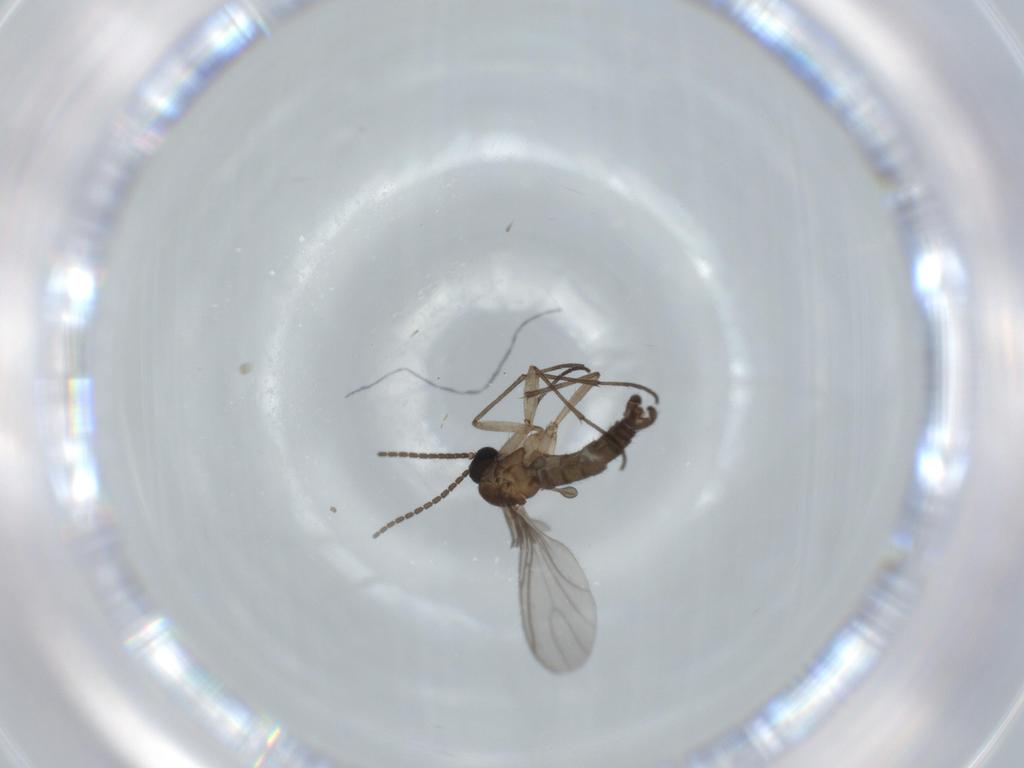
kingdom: Animalia
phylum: Arthropoda
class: Insecta
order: Diptera
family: Sciaridae
